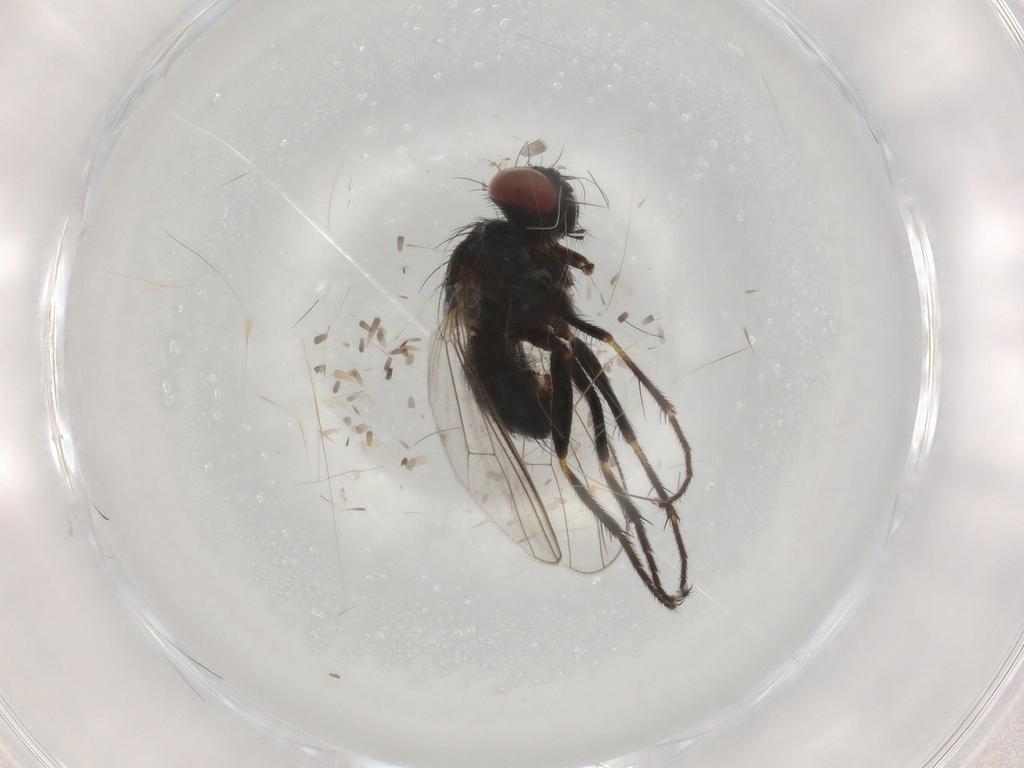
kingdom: Animalia
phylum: Arthropoda
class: Insecta
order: Diptera
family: Muscidae
